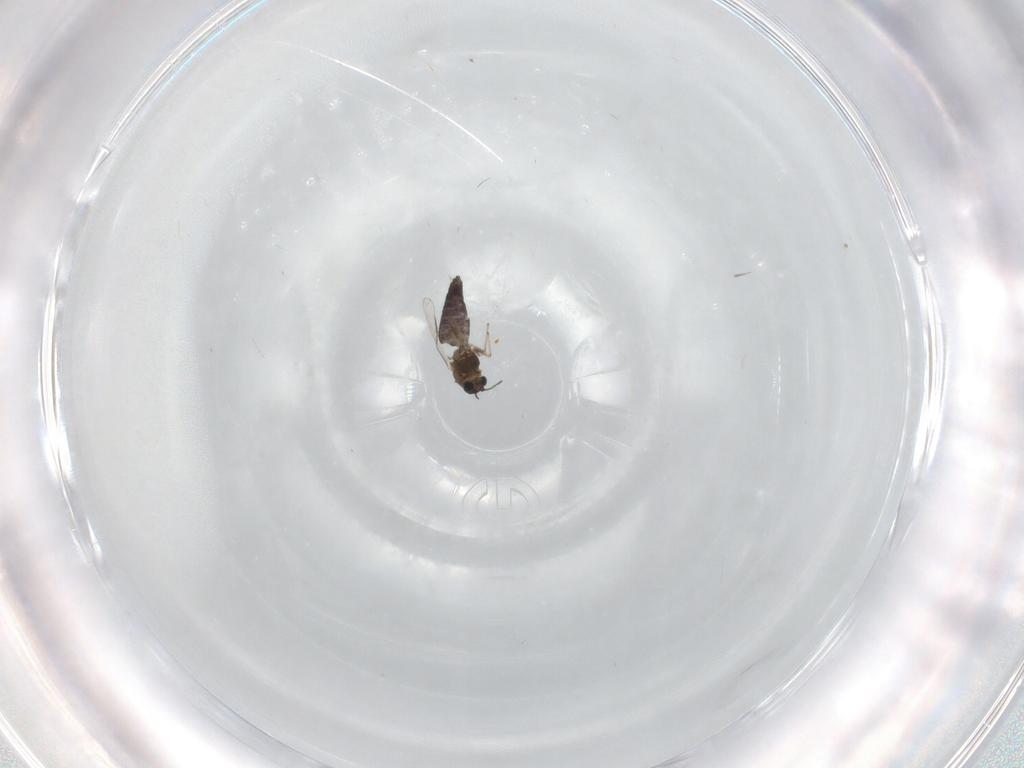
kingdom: Animalia
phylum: Arthropoda
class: Insecta
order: Diptera
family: Chironomidae
